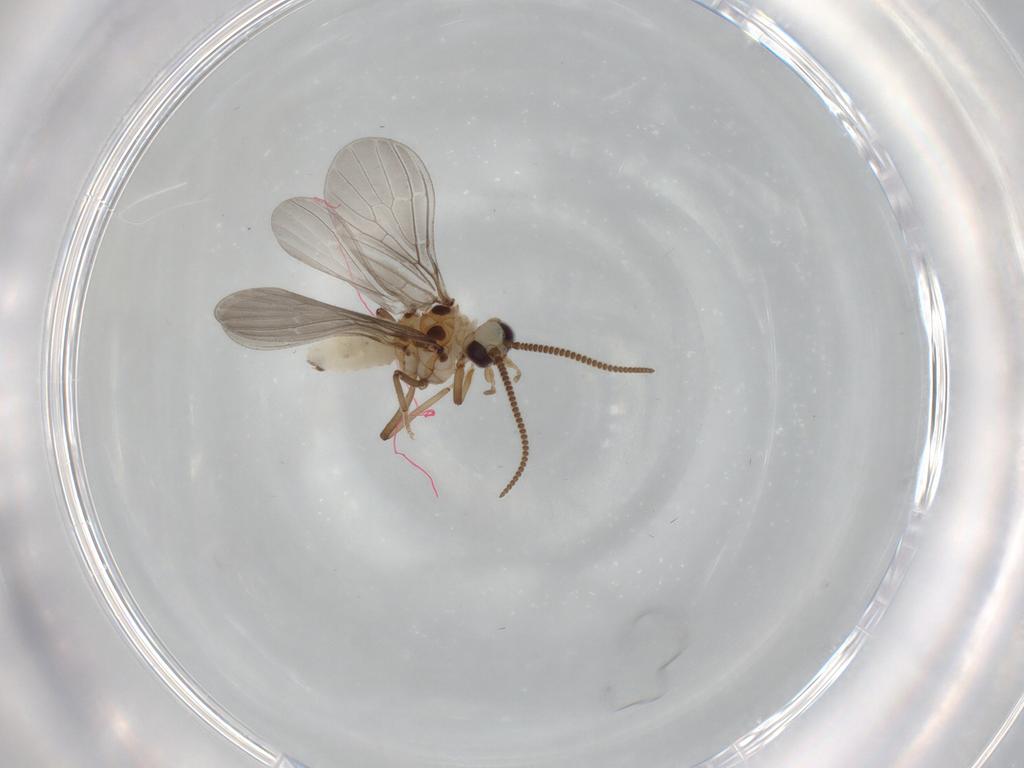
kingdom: Animalia
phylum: Arthropoda
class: Insecta
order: Neuroptera
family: Coniopterygidae
